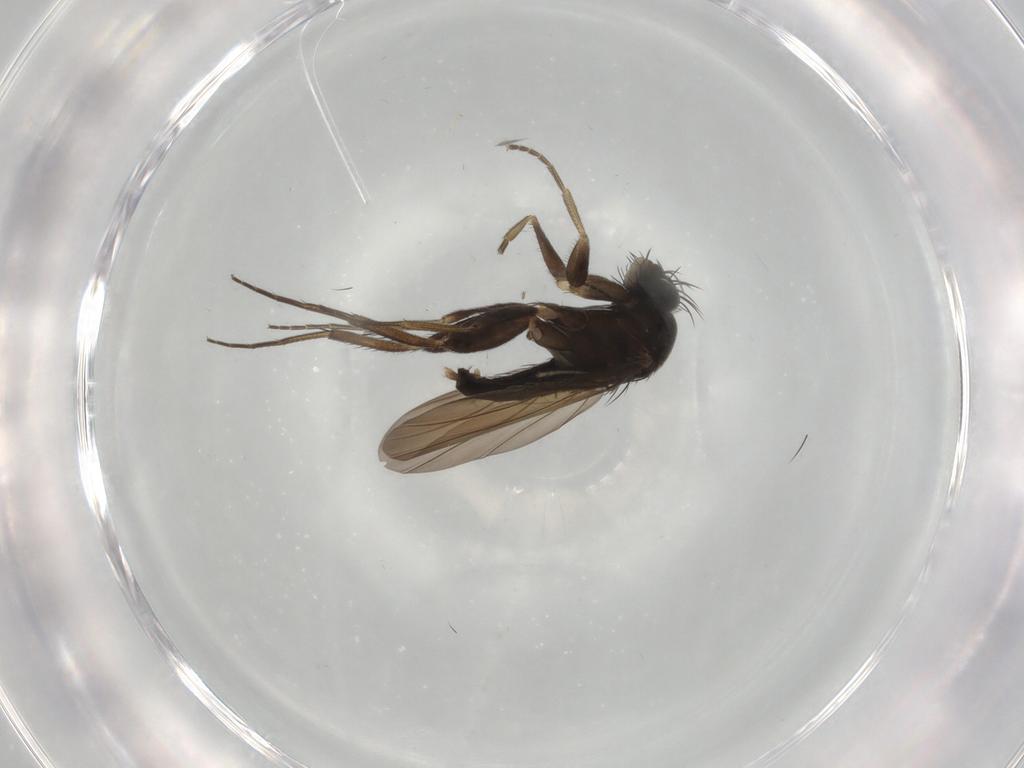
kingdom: Animalia
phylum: Arthropoda
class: Insecta
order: Diptera
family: Phoridae
